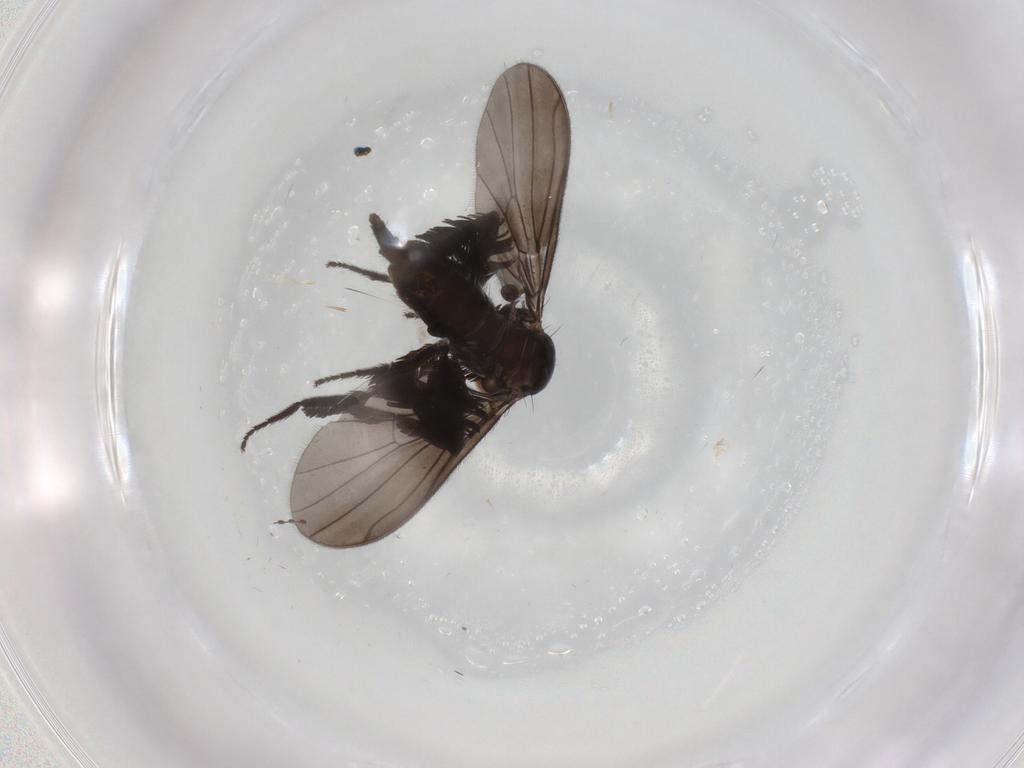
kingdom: Animalia
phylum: Arthropoda
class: Insecta
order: Diptera
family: Empididae
